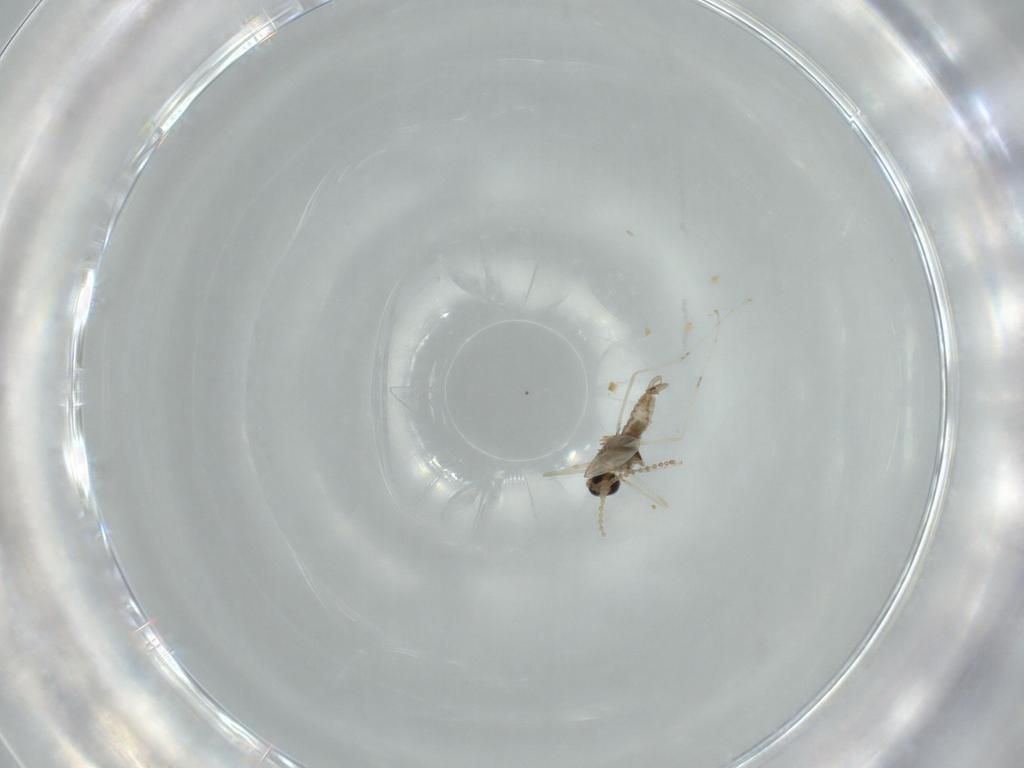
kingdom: Animalia
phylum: Arthropoda
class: Insecta
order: Diptera
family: Cecidomyiidae
